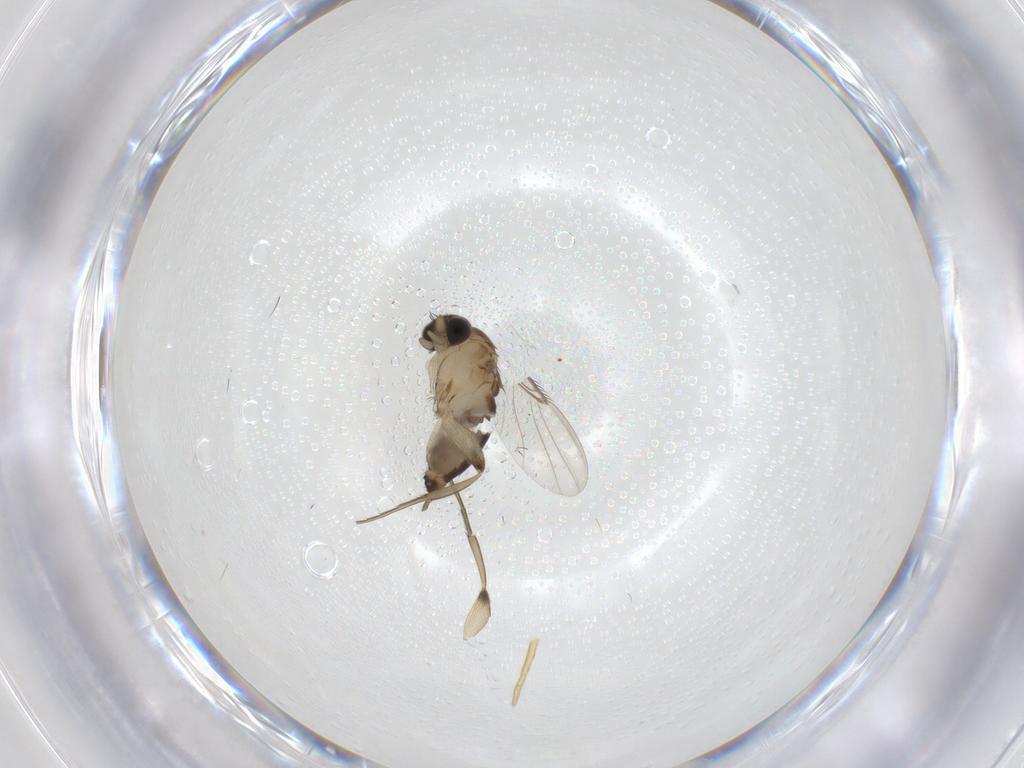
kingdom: Animalia
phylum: Arthropoda
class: Insecta
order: Diptera
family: Phoridae
